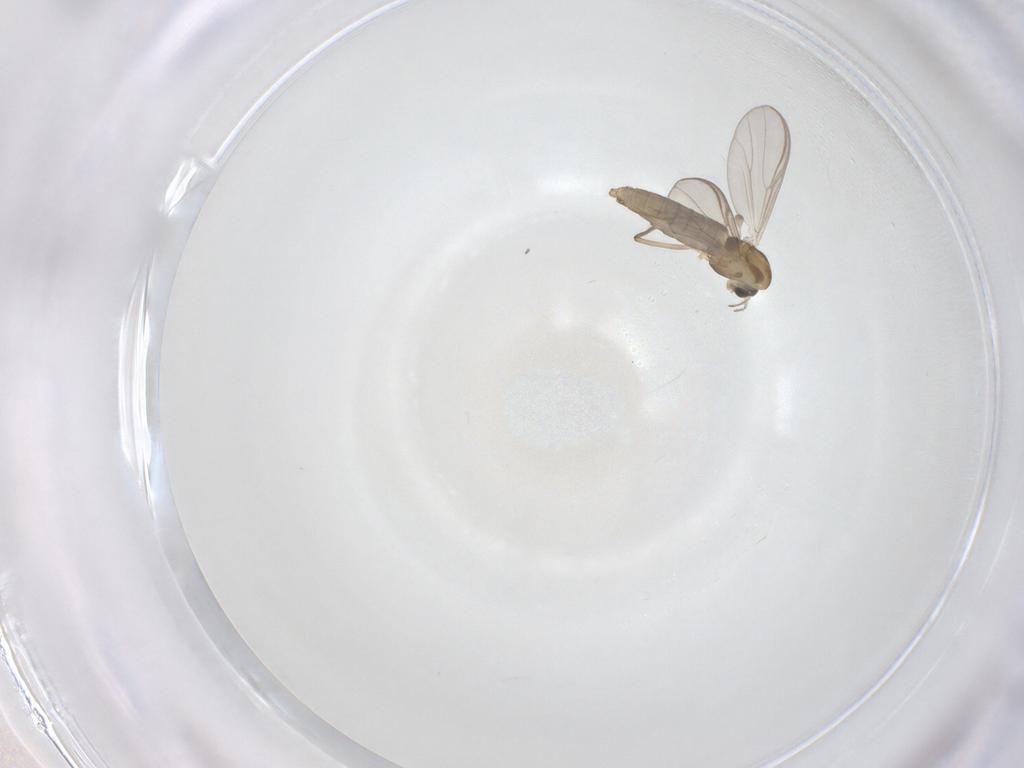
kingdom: Animalia
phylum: Arthropoda
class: Insecta
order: Diptera
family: Chironomidae
